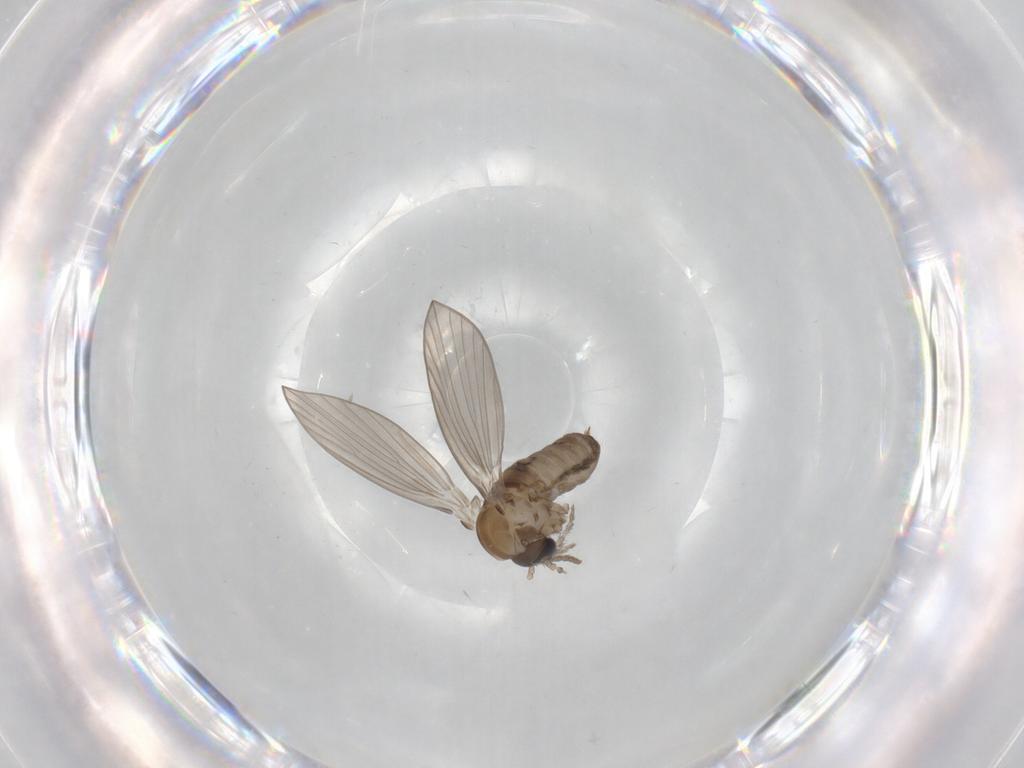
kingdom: Animalia
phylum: Arthropoda
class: Insecta
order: Diptera
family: Psychodidae
